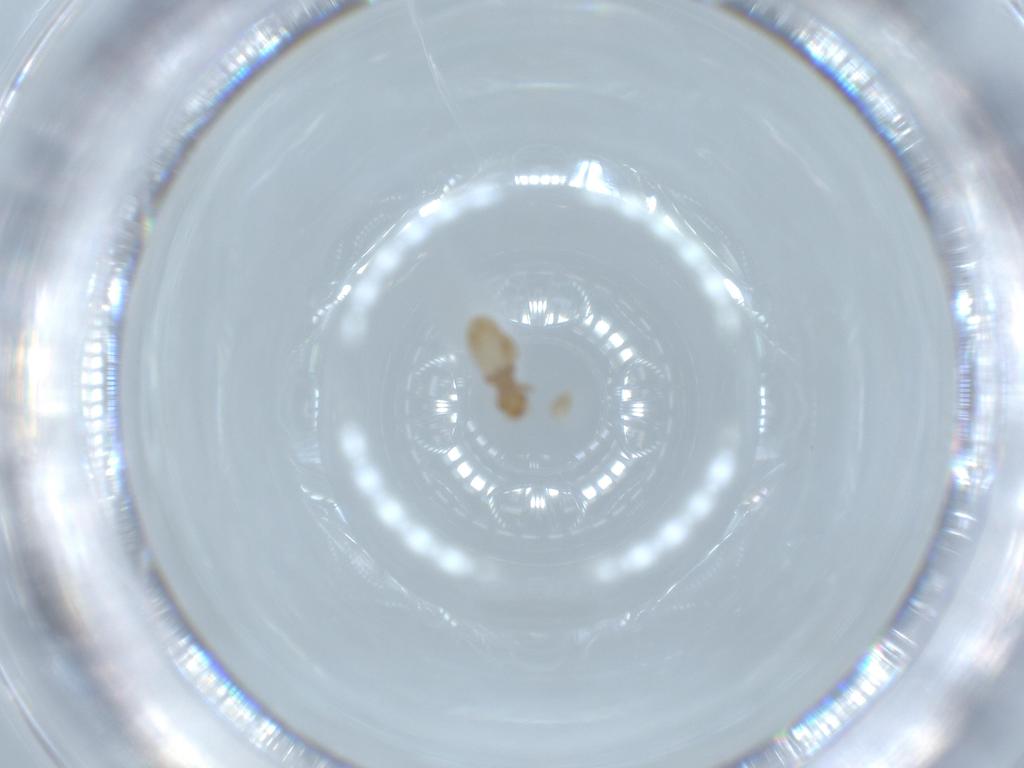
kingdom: Animalia
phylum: Arthropoda
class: Insecta
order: Psocodea
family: Liposcelididae
